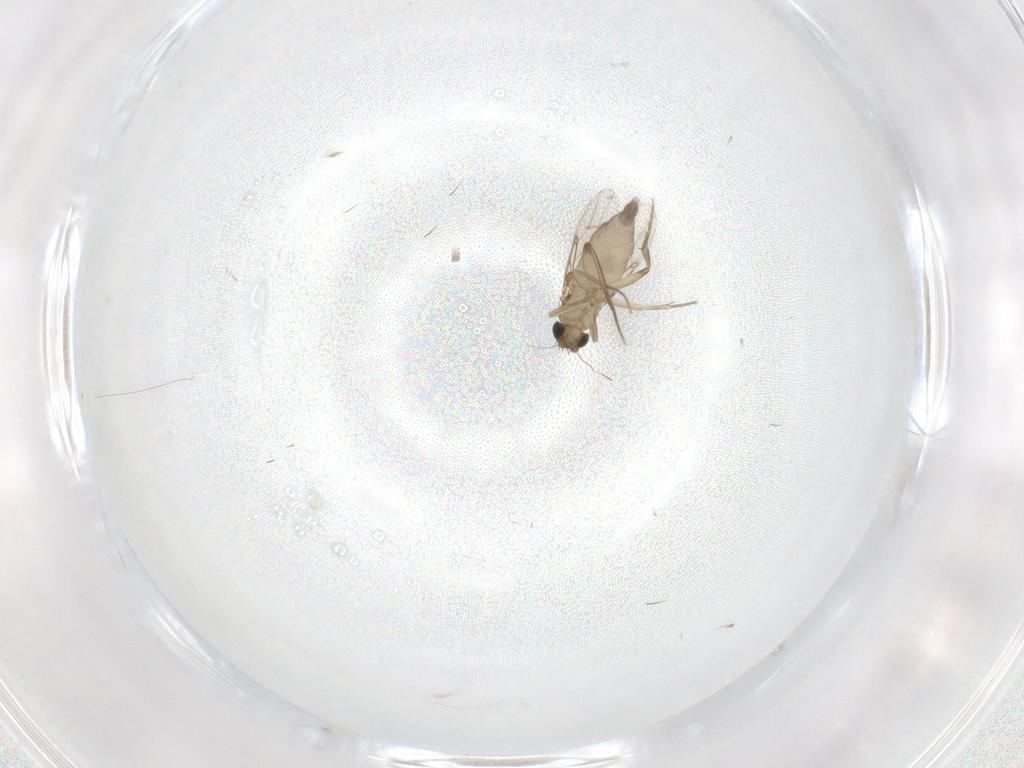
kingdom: Animalia
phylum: Arthropoda
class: Insecta
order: Diptera
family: Phoridae
